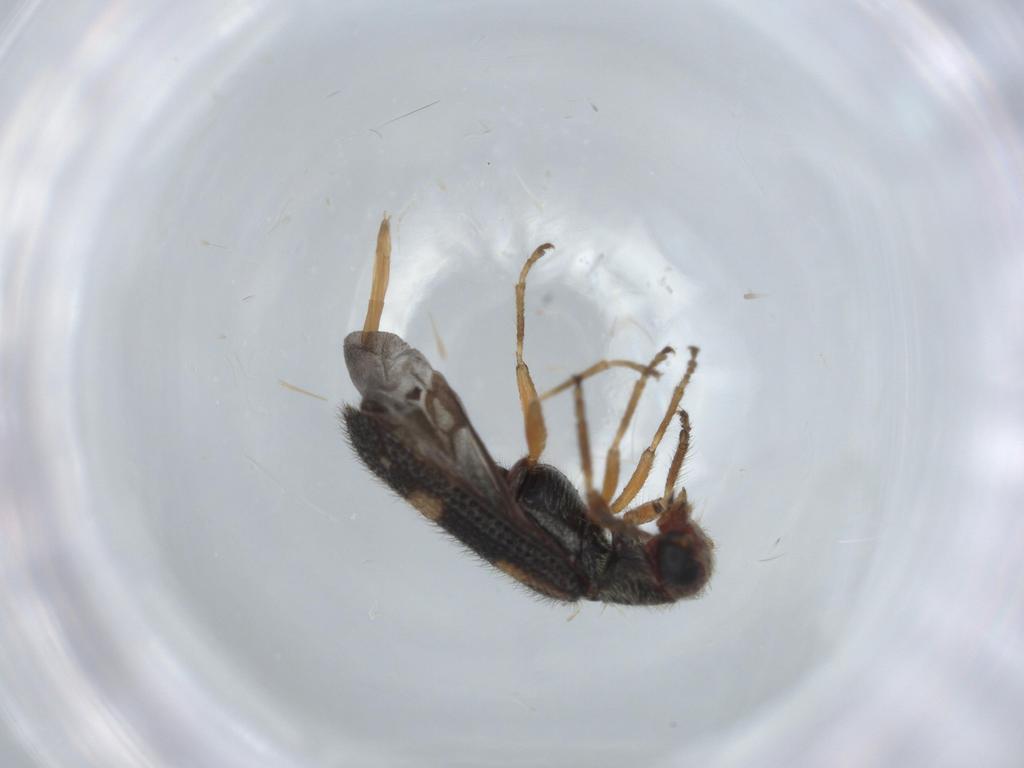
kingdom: Animalia
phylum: Arthropoda
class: Insecta
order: Coleoptera
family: Cleridae
